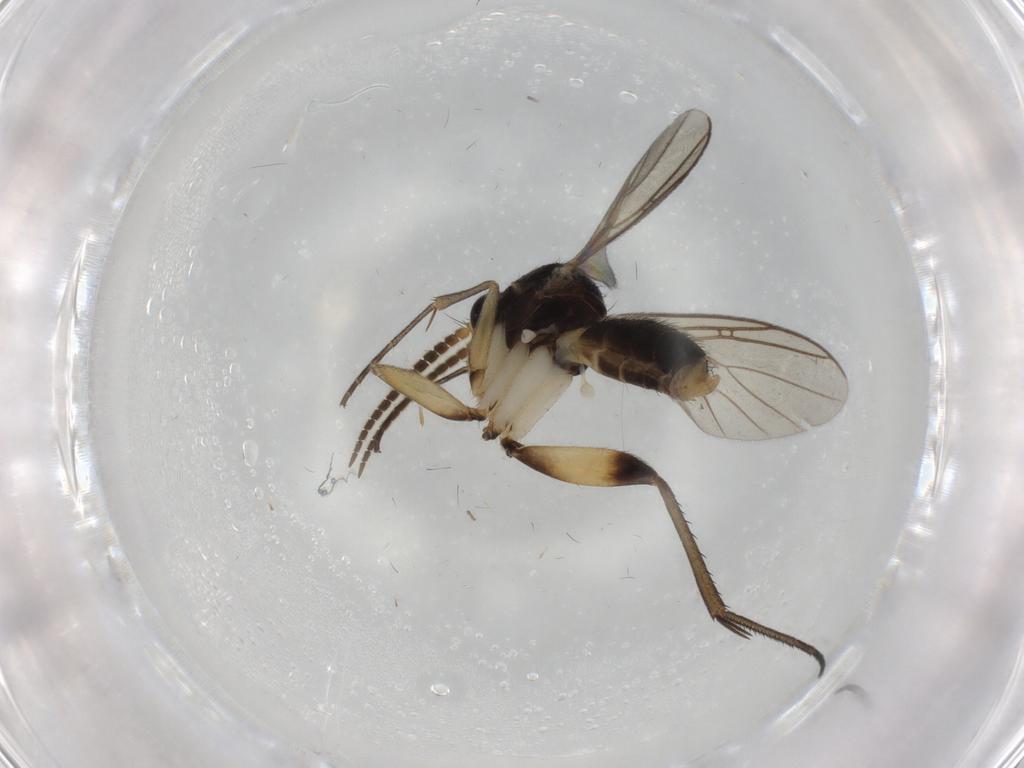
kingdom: Animalia
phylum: Arthropoda
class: Insecta
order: Diptera
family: Mycetophilidae
